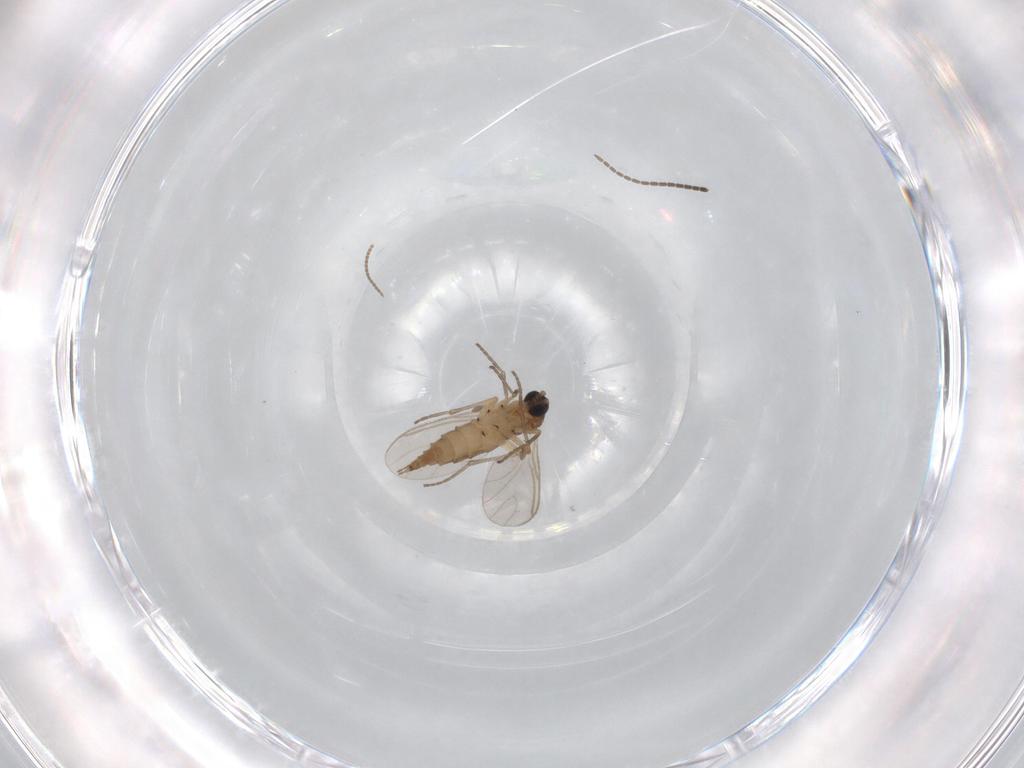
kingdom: Animalia
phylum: Arthropoda
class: Insecta
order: Diptera
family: Sciaridae
